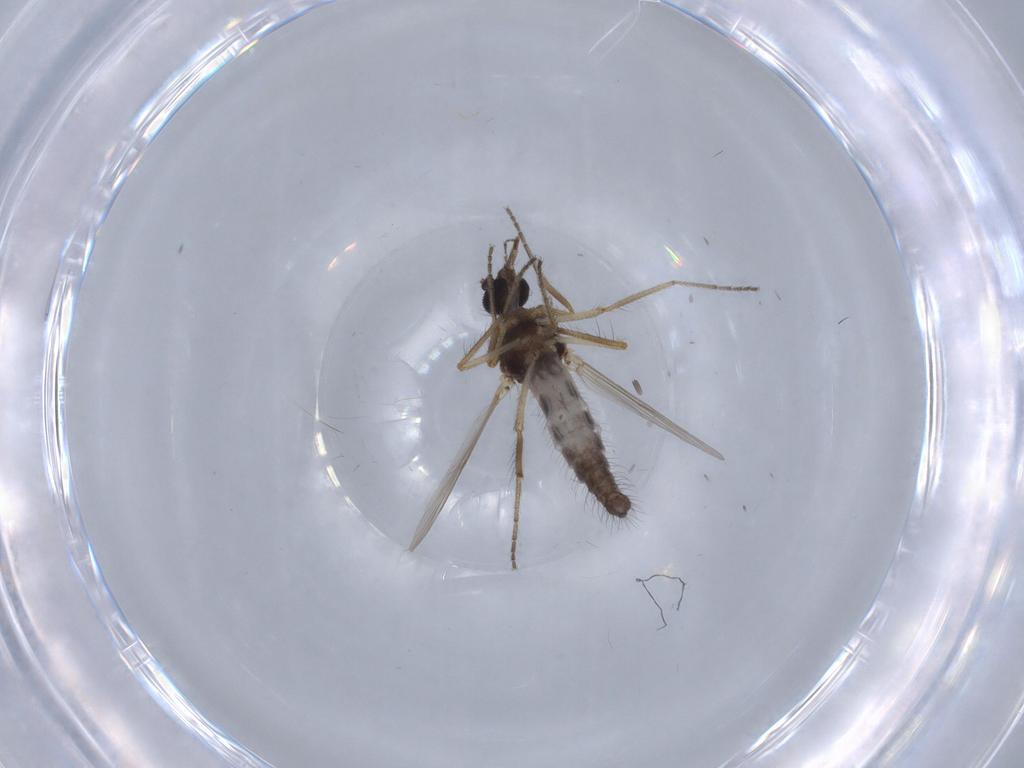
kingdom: Animalia
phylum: Arthropoda
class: Insecta
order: Diptera
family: Ceratopogonidae
